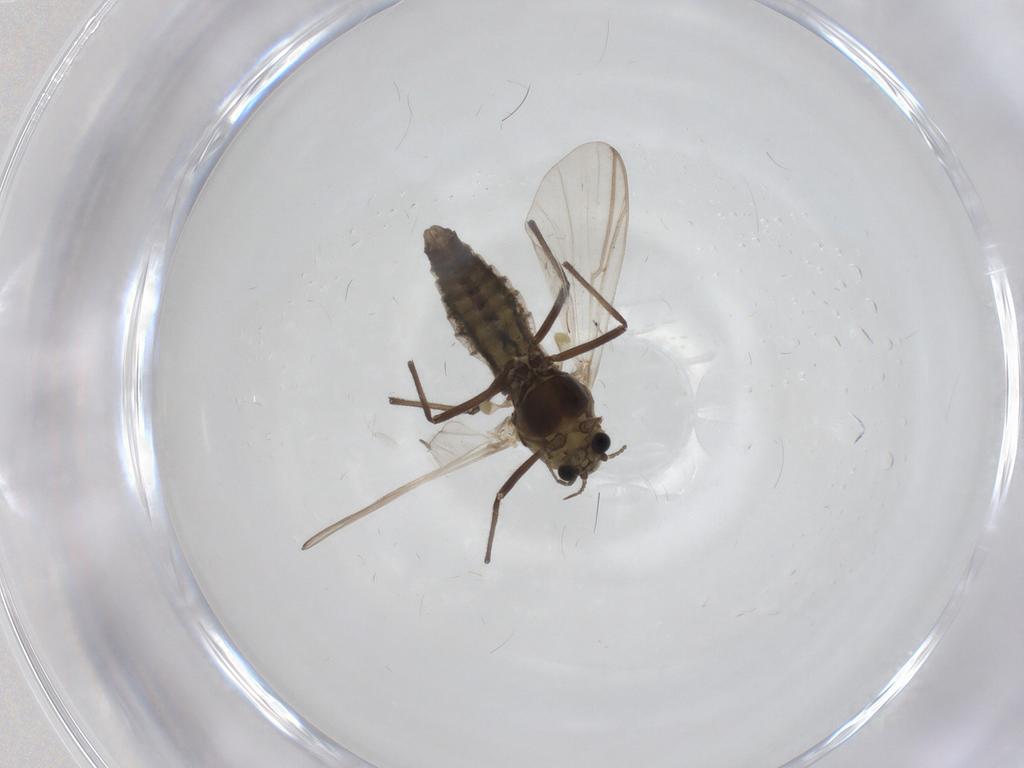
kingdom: Animalia
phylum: Arthropoda
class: Insecta
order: Diptera
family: Chironomidae
